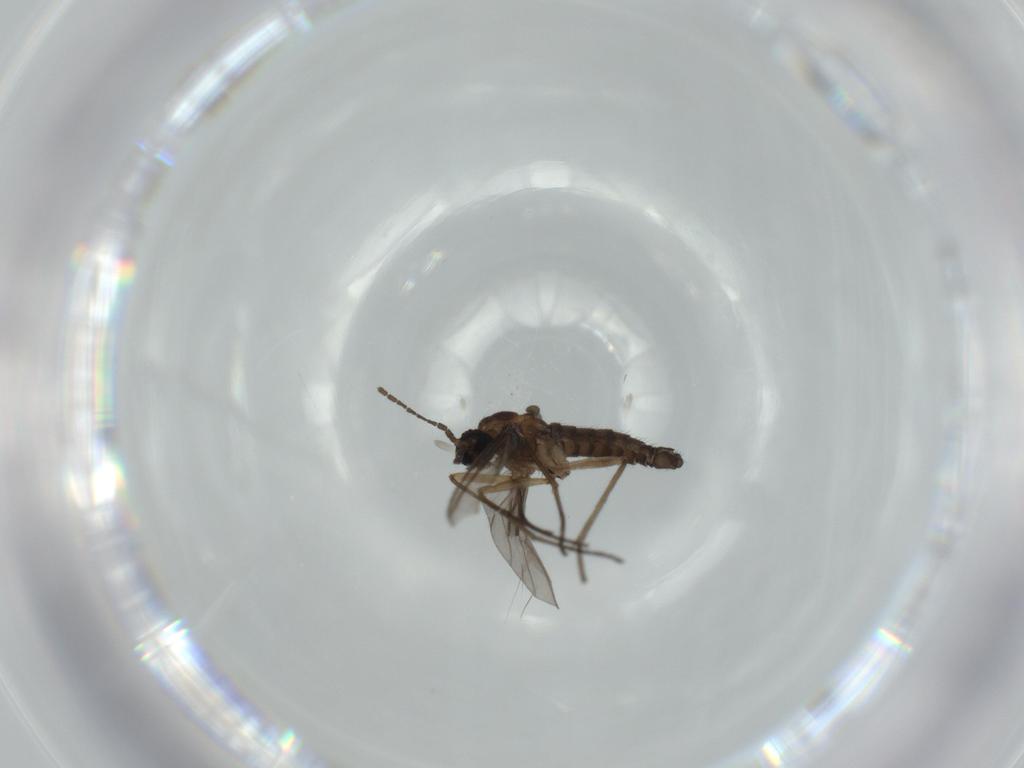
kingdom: Animalia
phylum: Arthropoda
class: Insecta
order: Diptera
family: Sciaridae
